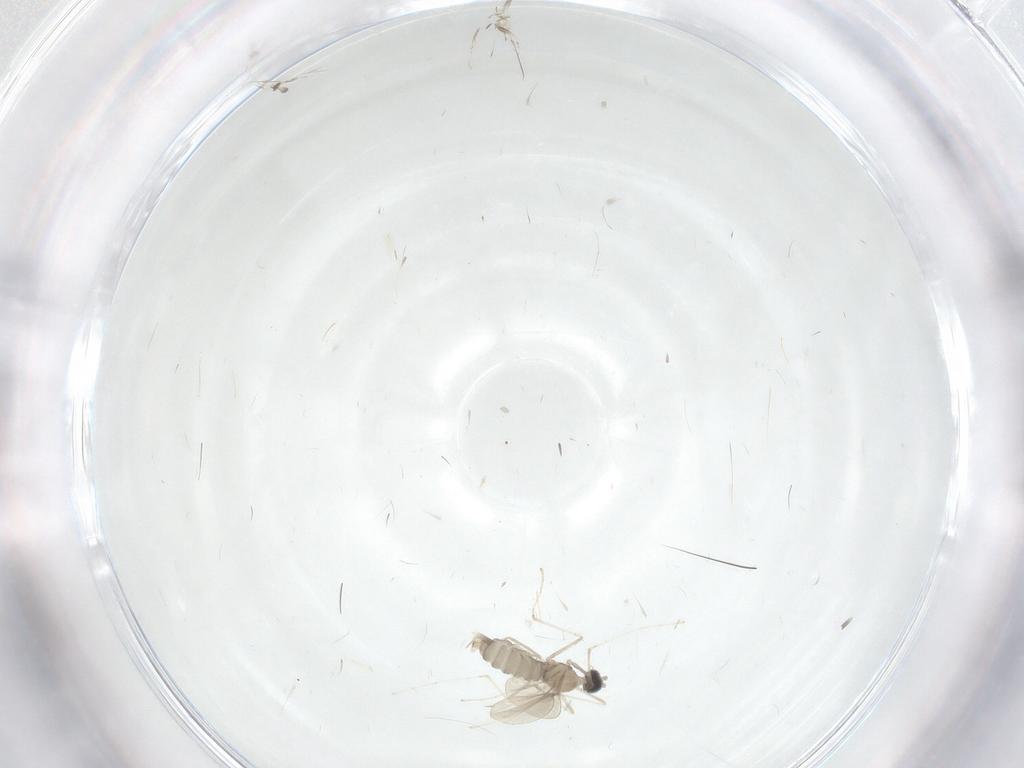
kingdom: Animalia
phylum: Arthropoda
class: Insecta
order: Diptera
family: Cecidomyiidae
